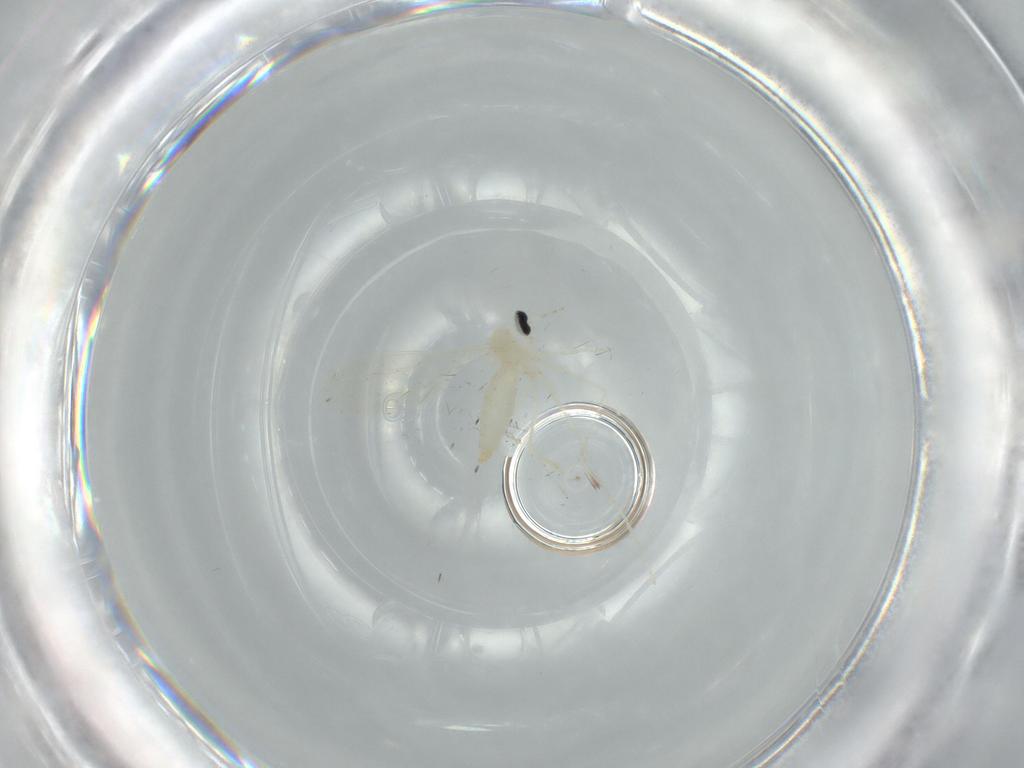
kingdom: Animalia
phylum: Arthropoda
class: Insecta
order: Diptera
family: Cecidomyiidae
